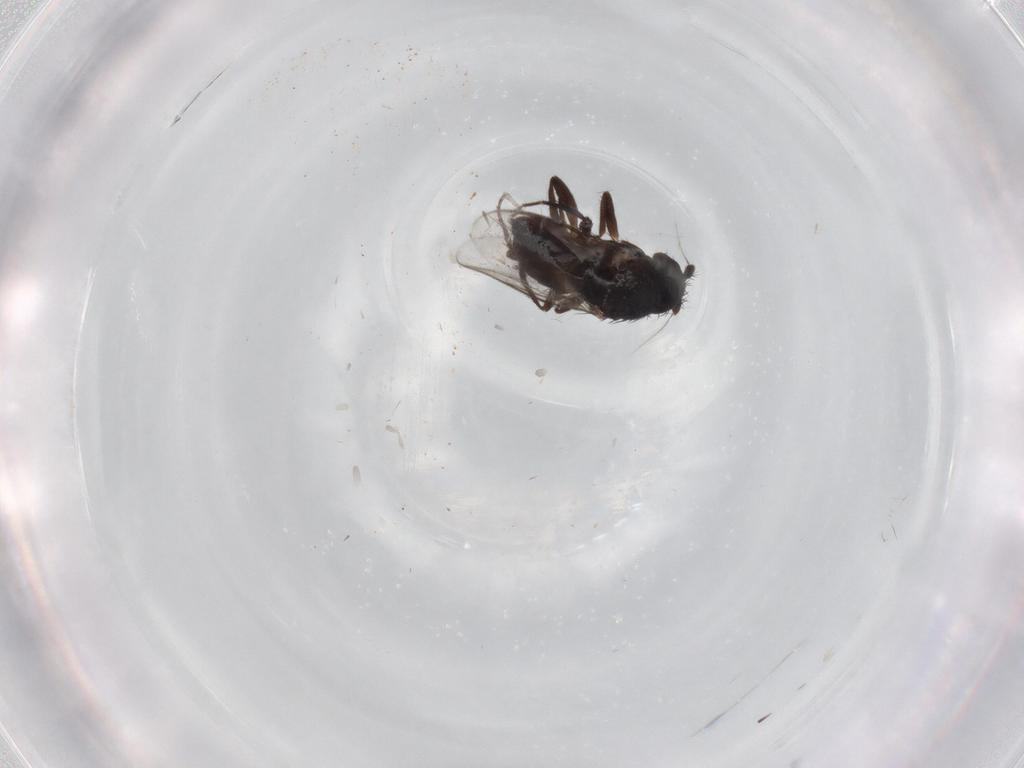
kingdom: Animalia
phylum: Arthropoda
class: Insecta
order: Diptera
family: Sphaeroceridae
